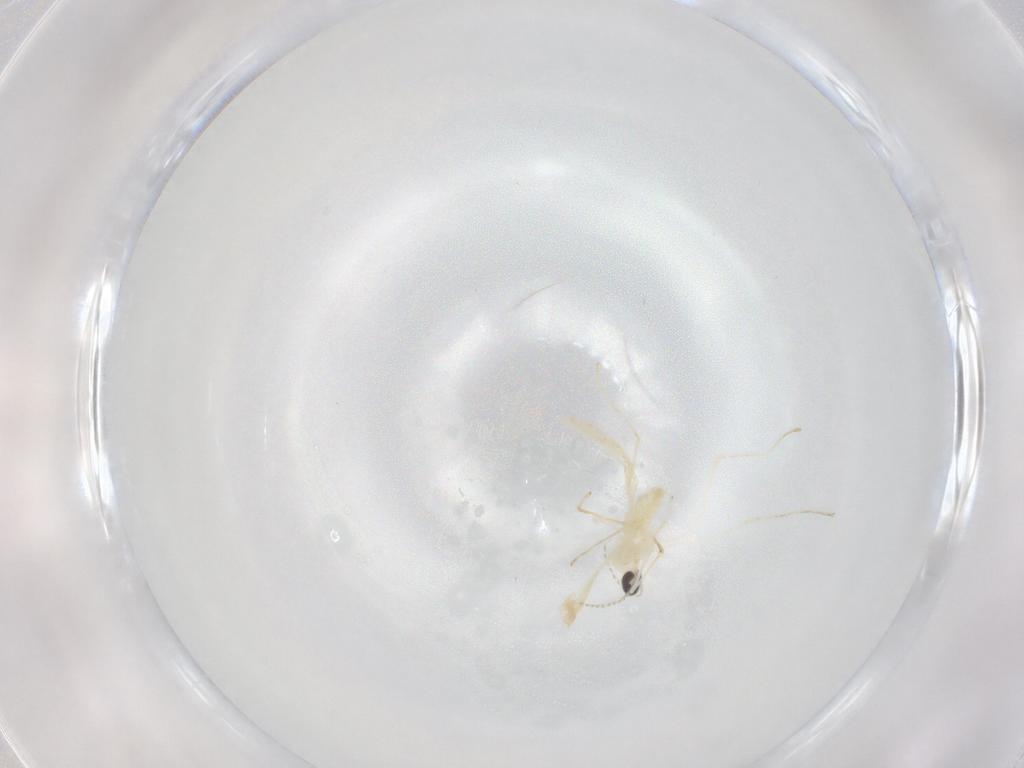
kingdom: Animalia
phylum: Arthropoda
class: Insecta
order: Diptera
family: Cecidomyiidae
